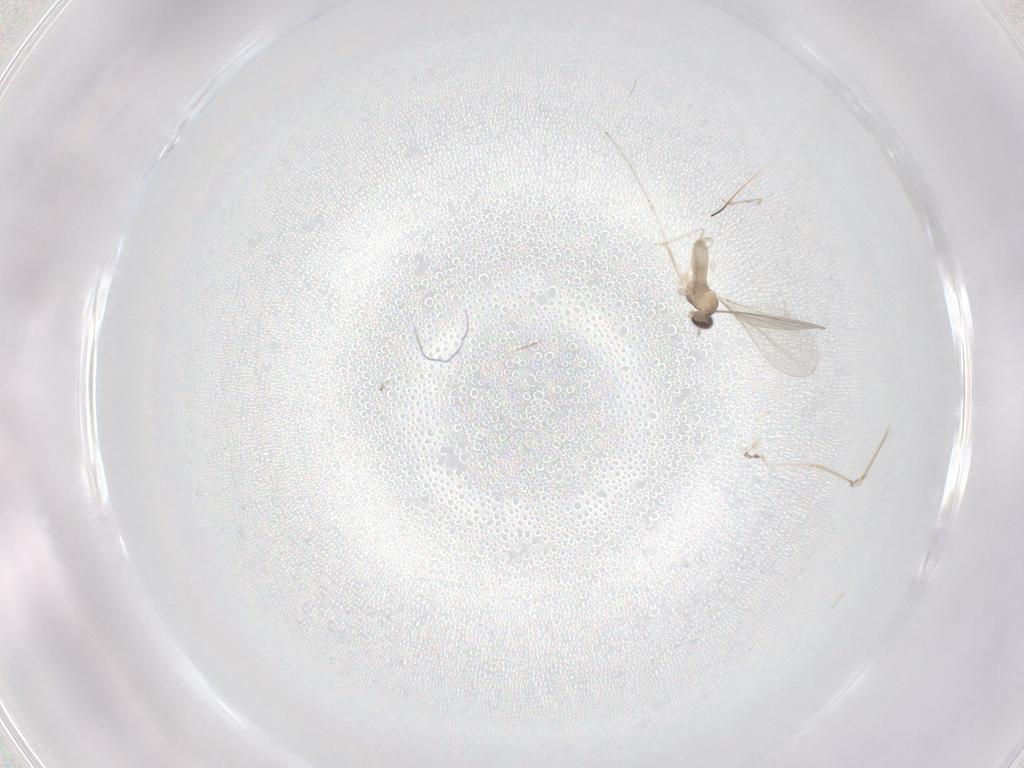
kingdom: Animalia
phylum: Arthropoda
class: Insecta
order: Diptera
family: Cecidomyiidae
